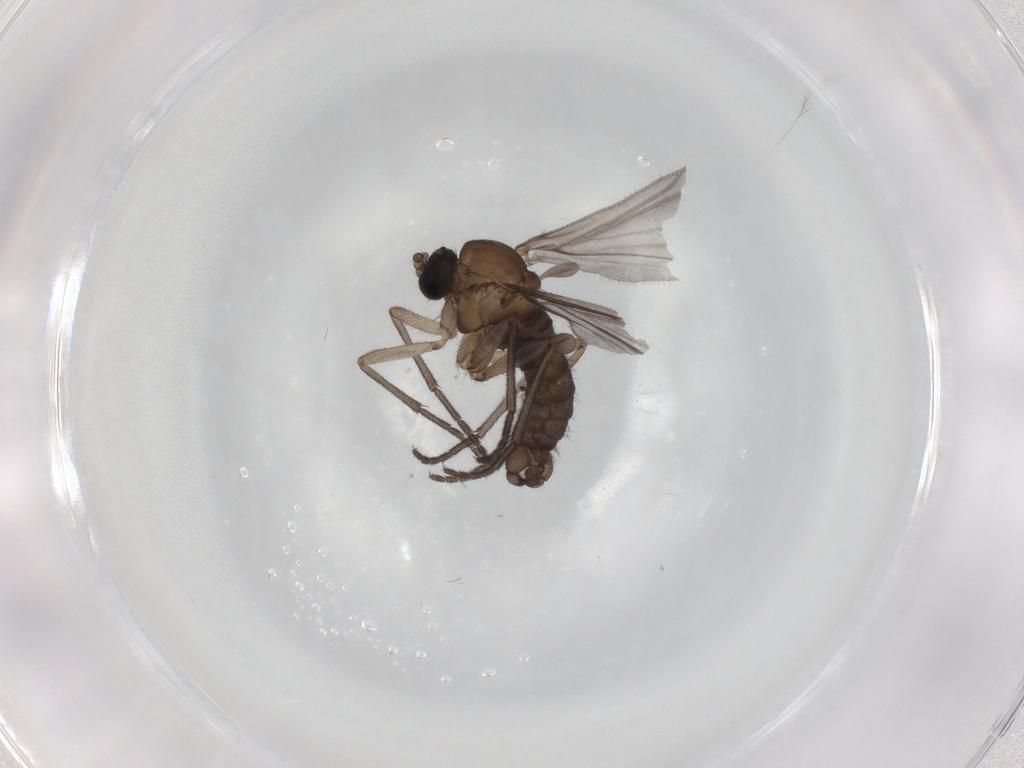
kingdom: Animalia
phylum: Arthropoda
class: Insecta
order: Diptera
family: Sciaridae
